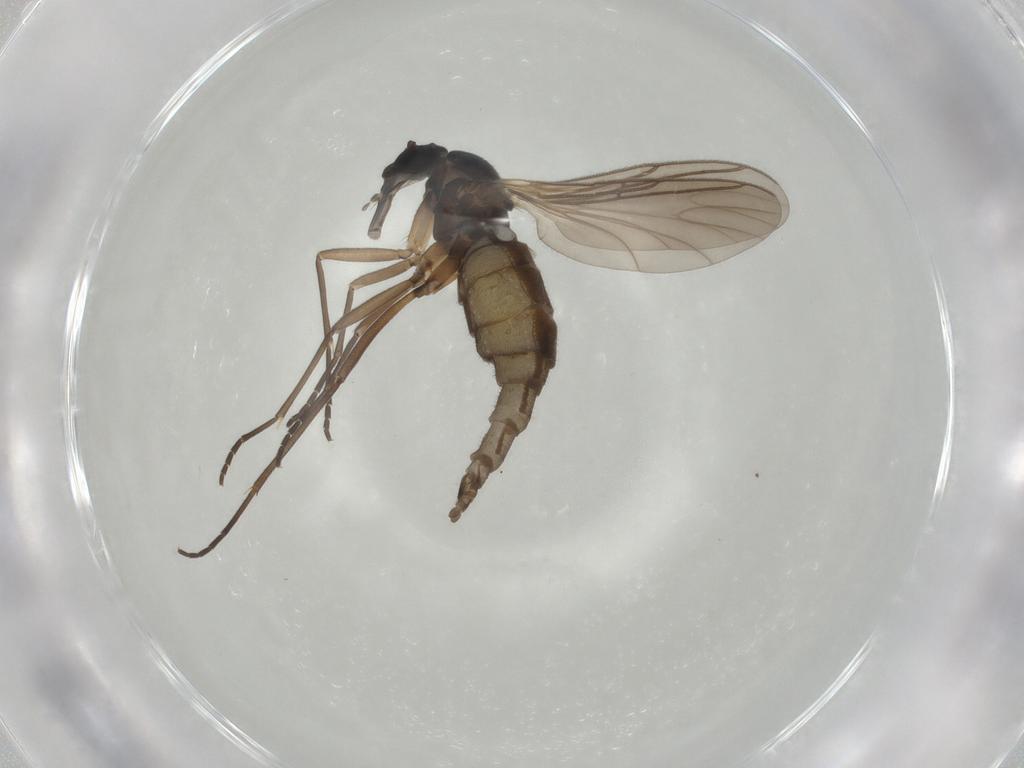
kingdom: Animalia
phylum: Arthropoda
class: Insecta
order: Diptera
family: Sciaridae
